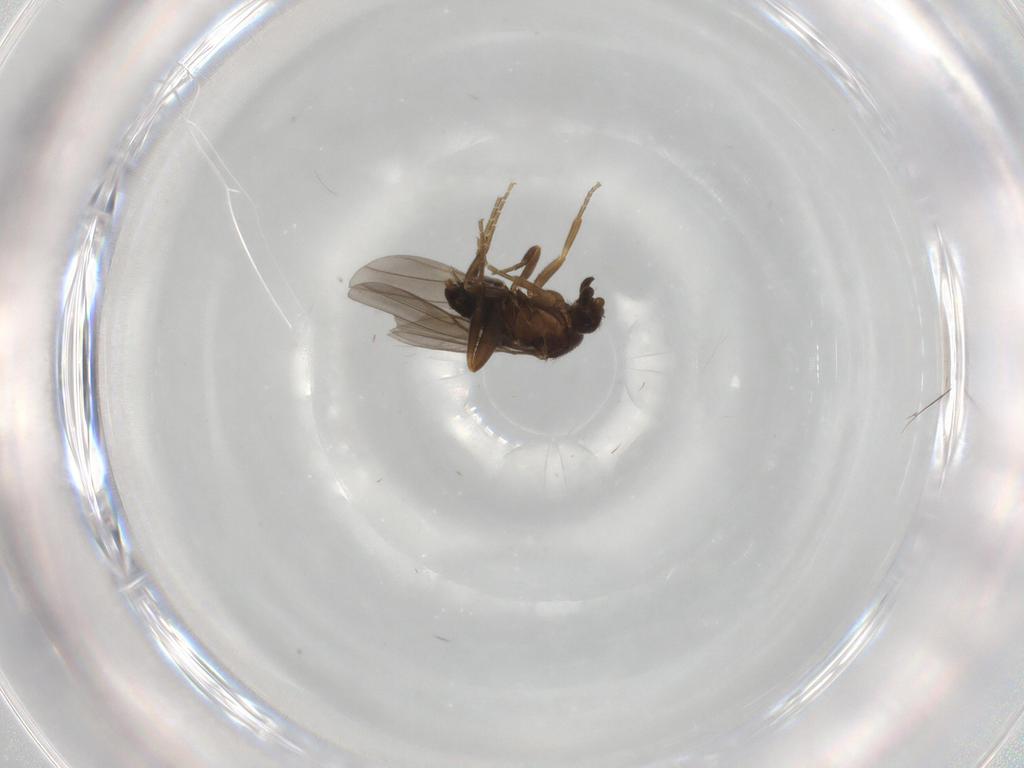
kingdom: Animalia
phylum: Arthropoda
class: Insecta
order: Diptera
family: Phoridae
